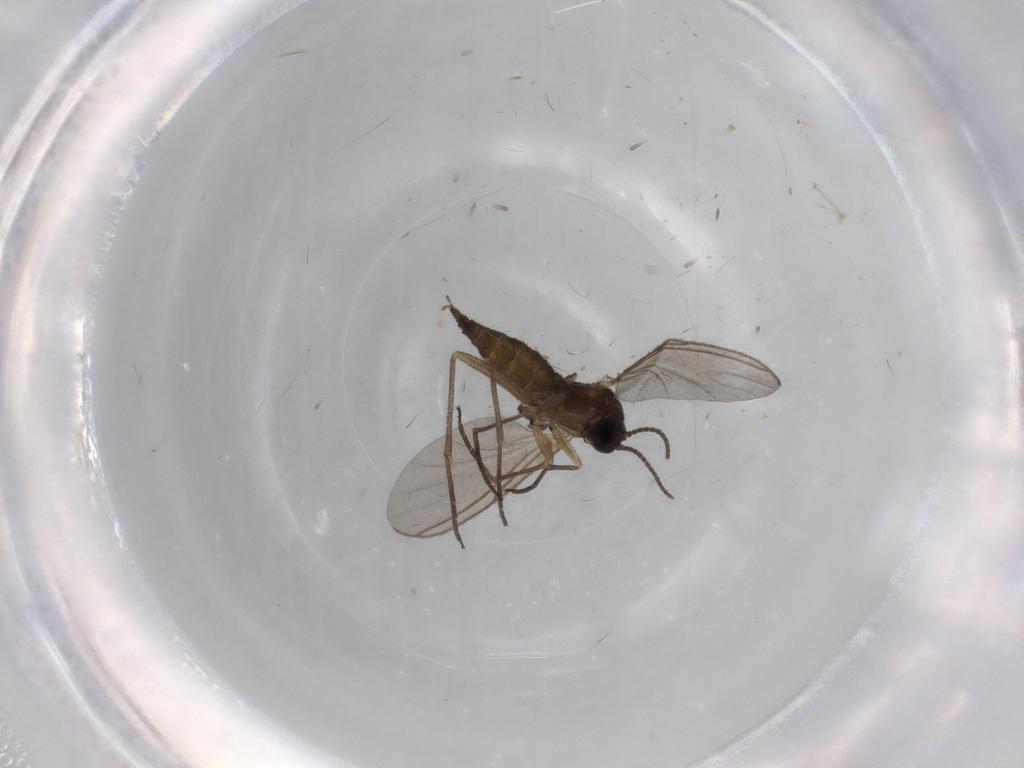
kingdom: Animalia
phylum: Arthropoda
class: Insecta
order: Diptera
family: Sciaridae
